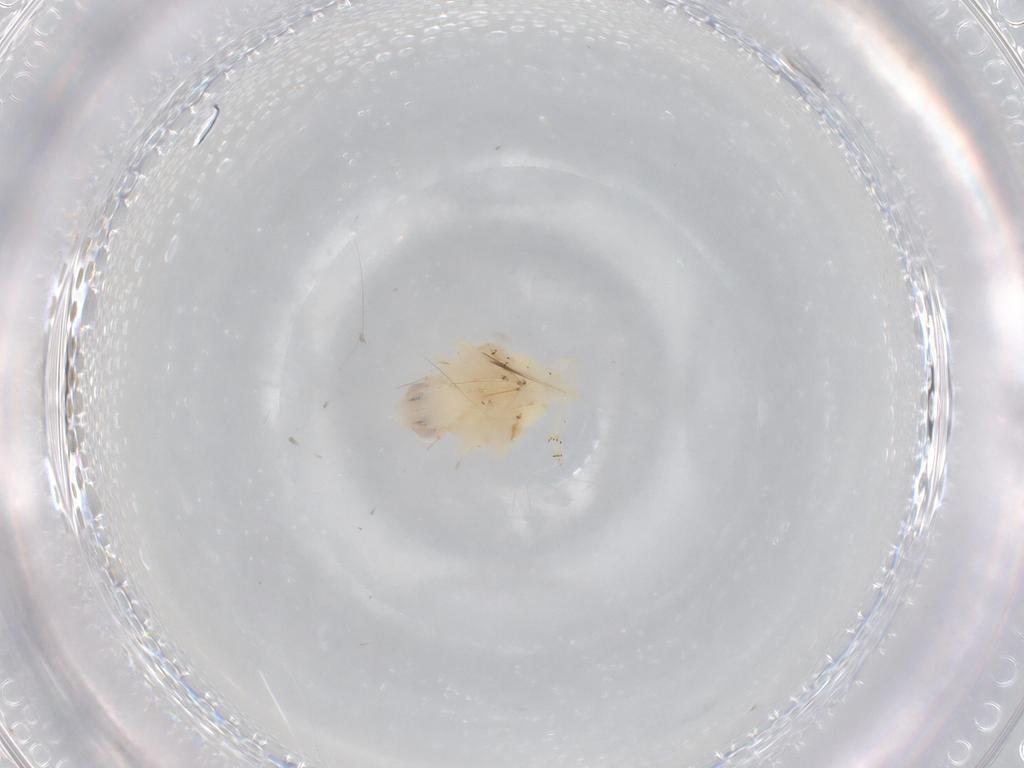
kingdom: Animalia
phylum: Arthropoda
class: Insecta
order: Hemiptera
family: Nogodinidae
